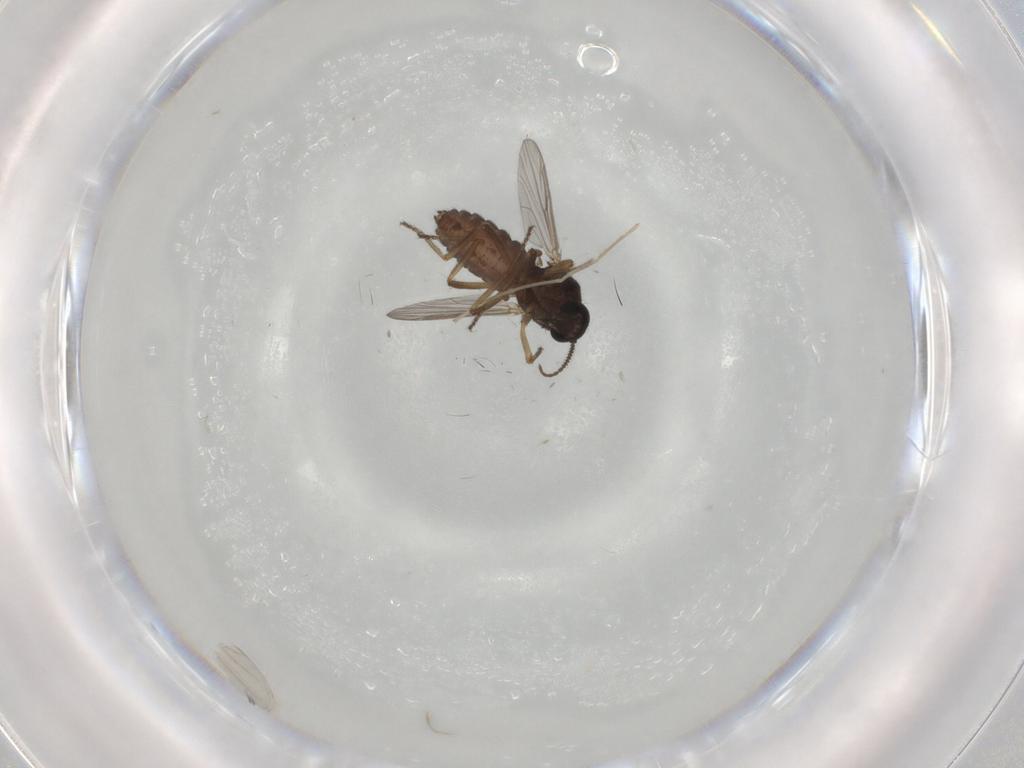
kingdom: Animalia
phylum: Arthropoda
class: Insecta
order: Diptera
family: Ceratopogonidae
